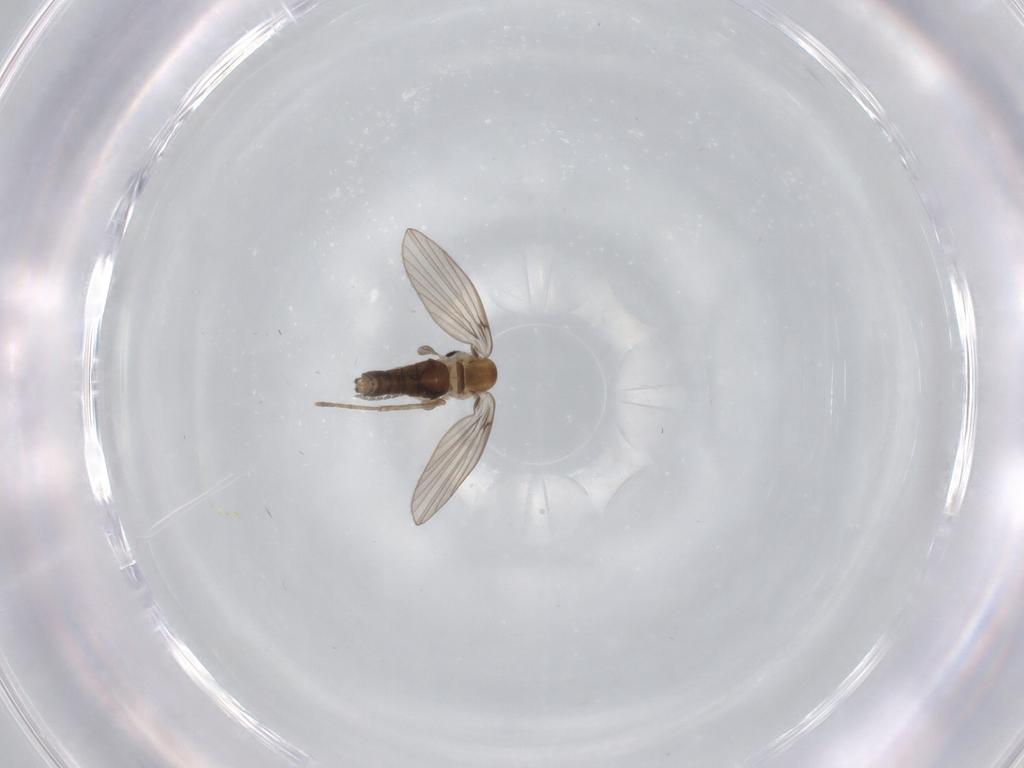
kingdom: Animalia
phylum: Arthropoda
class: Insecta
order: Diptera
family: Psychodidae
